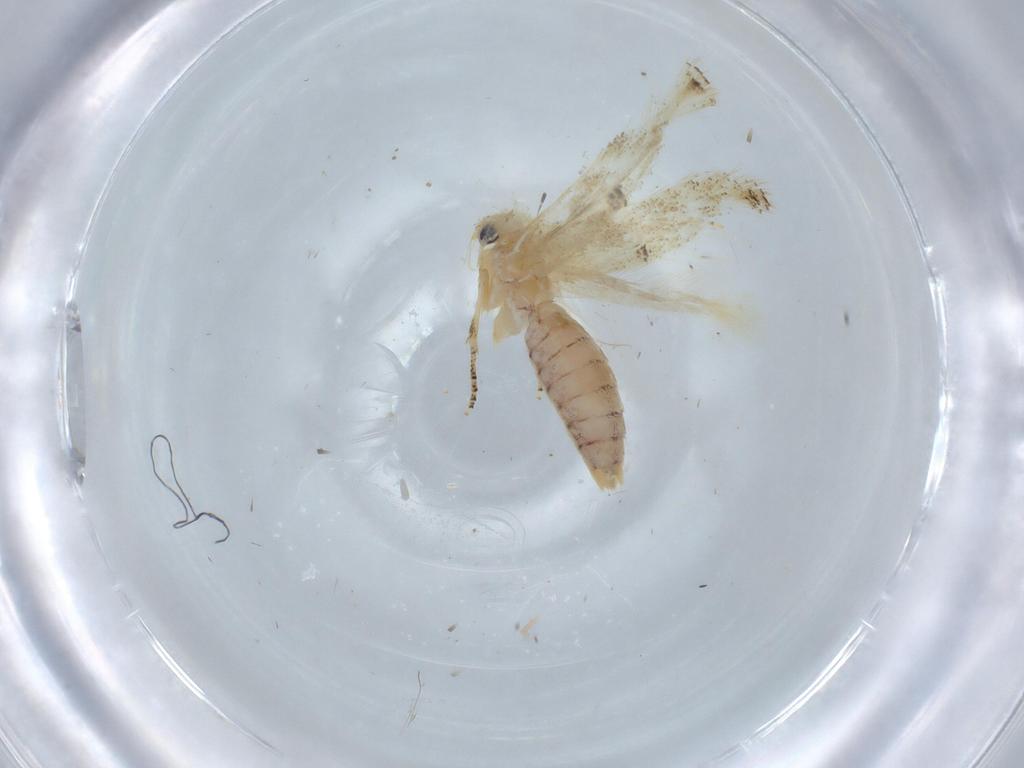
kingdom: Animalia
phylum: Arthropoda
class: Insecta
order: Lepidoptera
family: Bucculatricidae
